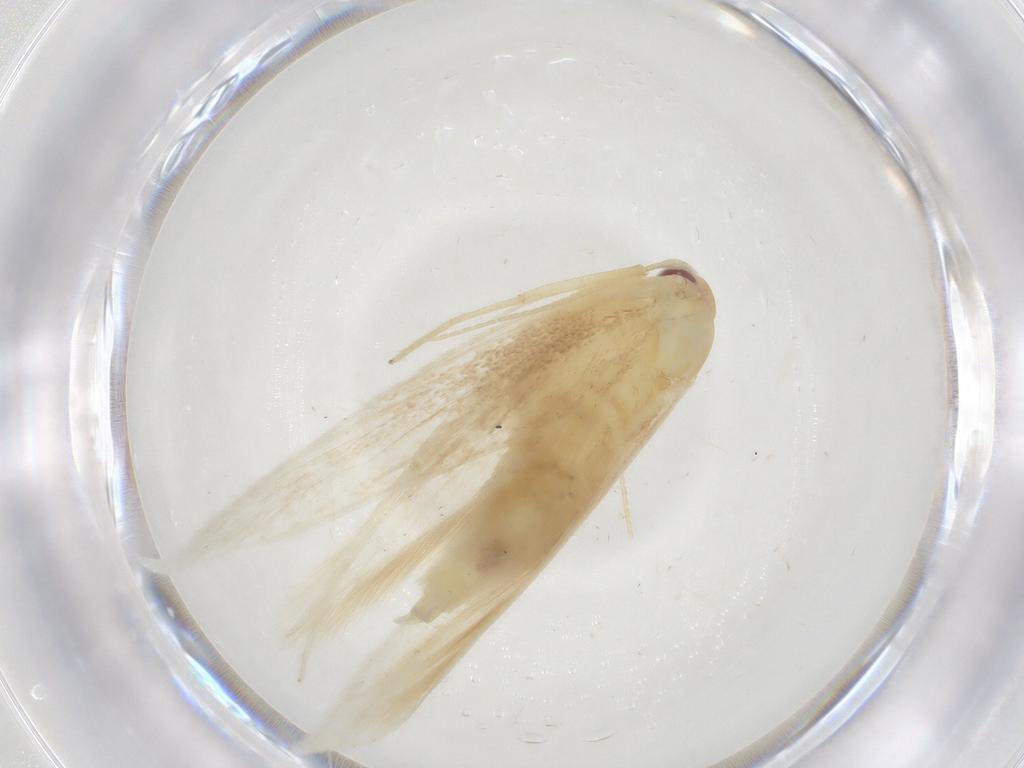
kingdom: Animalia
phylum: Arthropoda
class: Insecta
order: Lepidoptera
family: Cosmopterigidae
